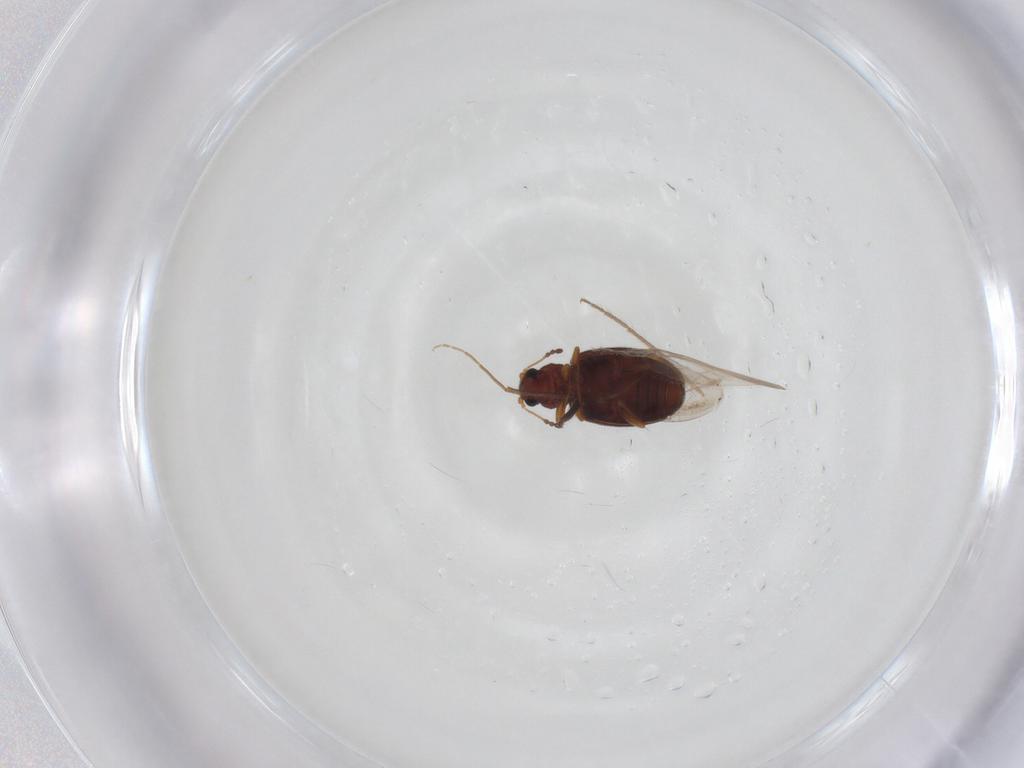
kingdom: Animalia
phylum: Arthropoda
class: Insecta
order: Coleoptera
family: Latridiidae
